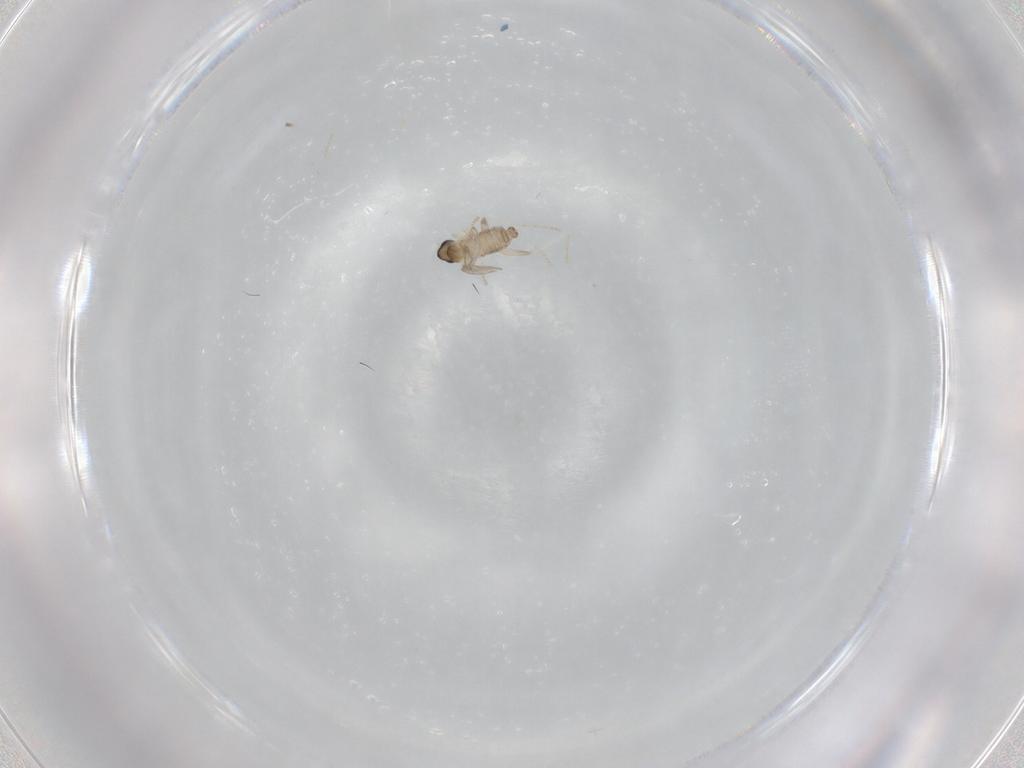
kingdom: Animalia
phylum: Arthropoda
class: Insecta
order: Diptera
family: Cecidomyiidae
